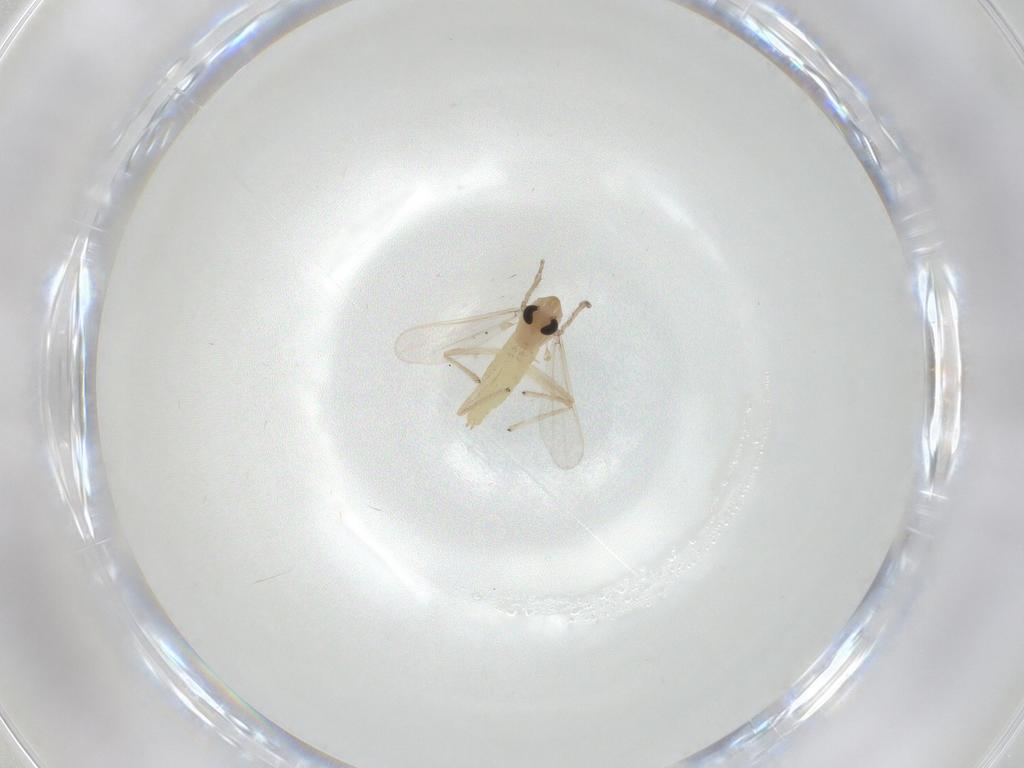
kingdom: Animalia
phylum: Arthropoda
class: Insecta
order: Diptera
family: Chironomidae
